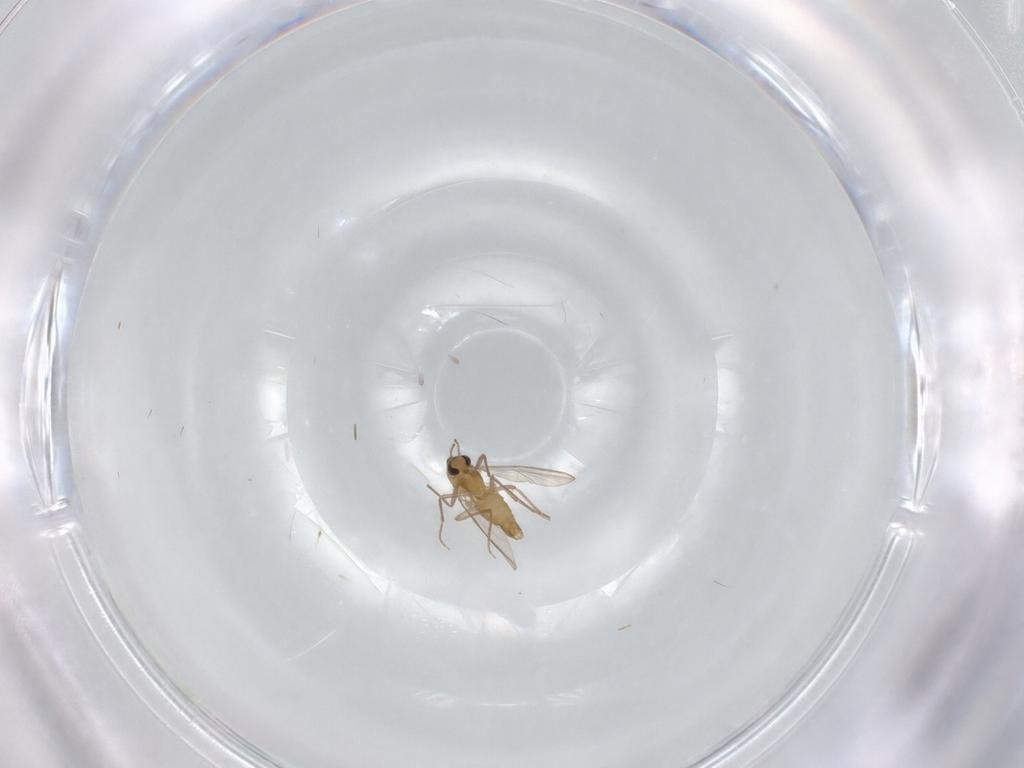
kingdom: Animalia
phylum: Arthropoda
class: Insecta
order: Diptera
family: Chironomidae
